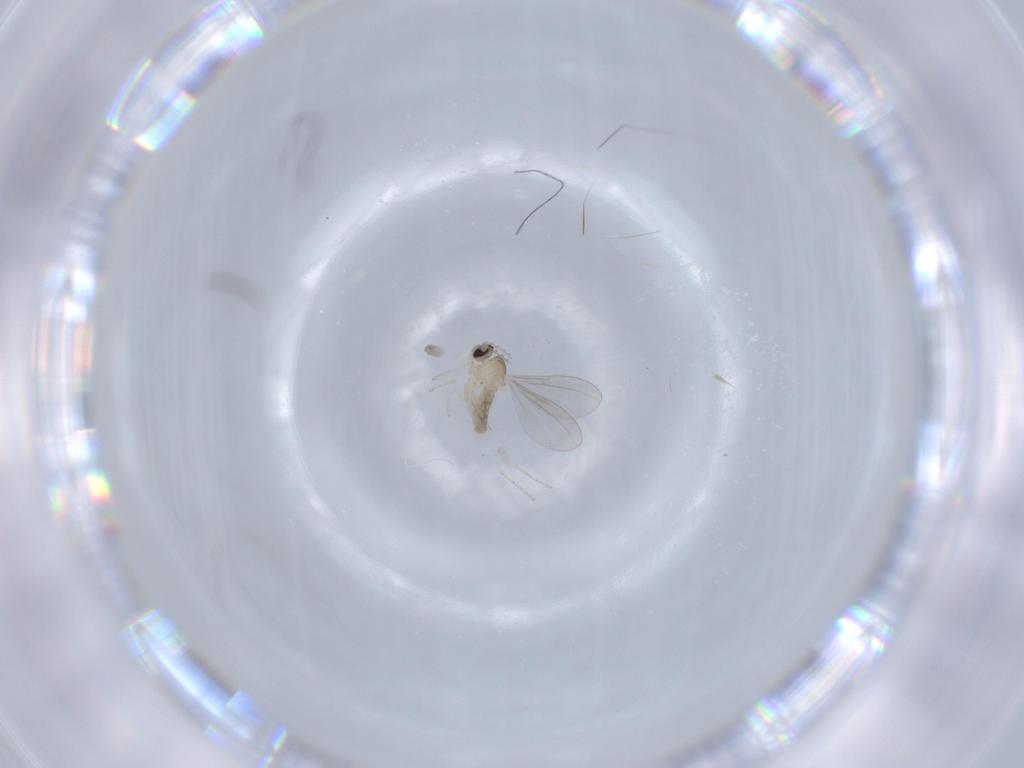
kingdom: Animalia
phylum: Arthropoda
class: Insecta
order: Diptera
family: Cecidomyiidae
